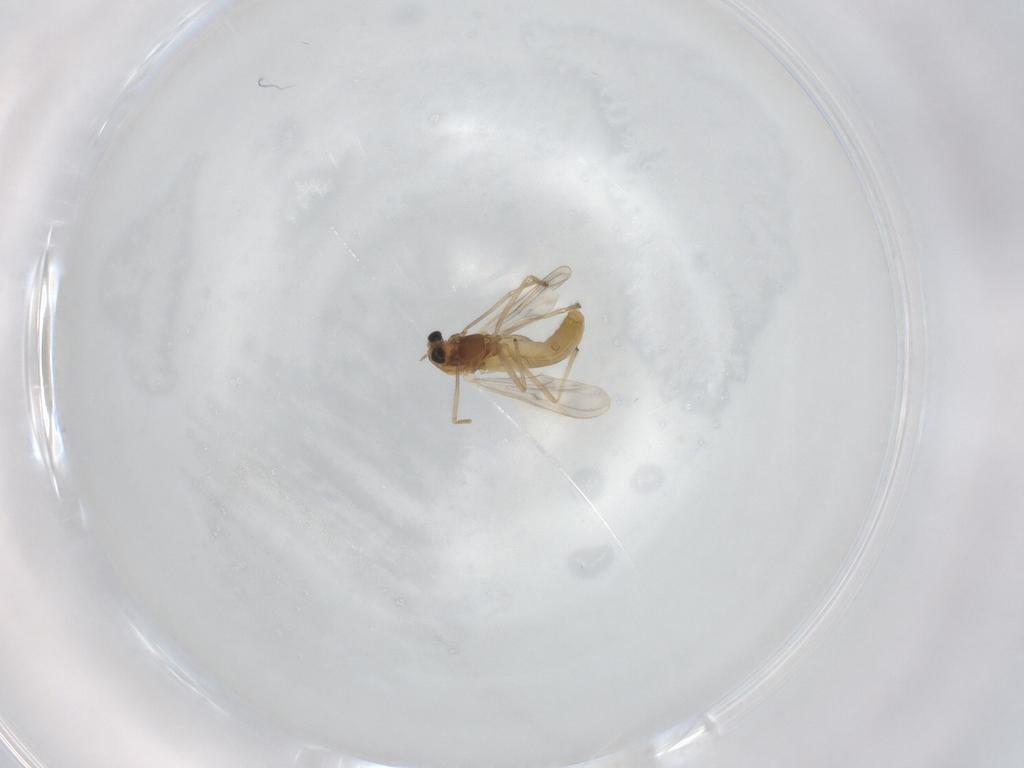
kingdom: Animalia
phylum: Arthropoda
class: Insecta
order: Diptera
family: Chironomidae
